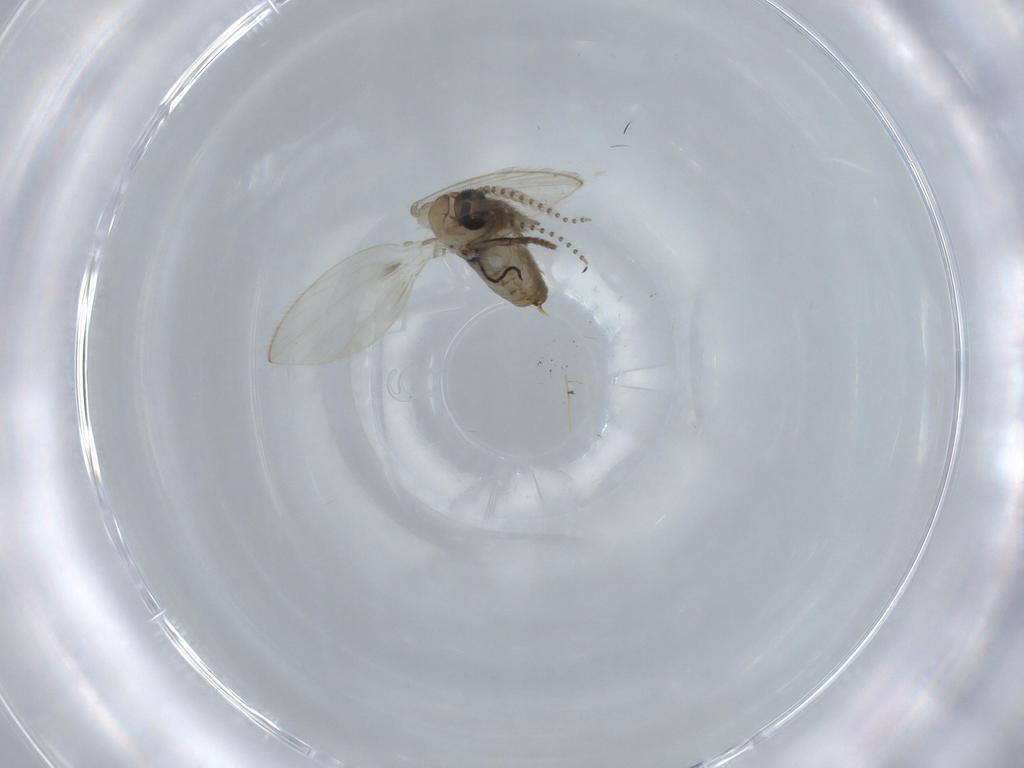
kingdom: Animalia
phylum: Arthropoda
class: Insecta
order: Diptera
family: Psychodidae
